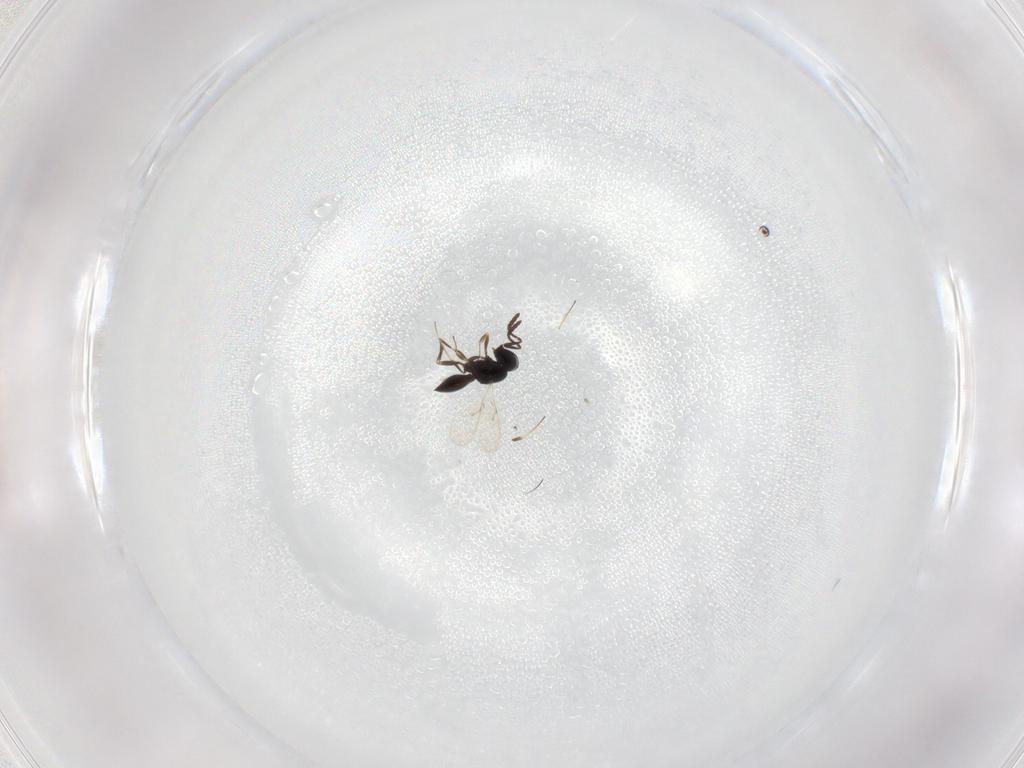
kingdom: Animalia
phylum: Arthropoda
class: Insecta
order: Hymenoptera
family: Scelionidae
